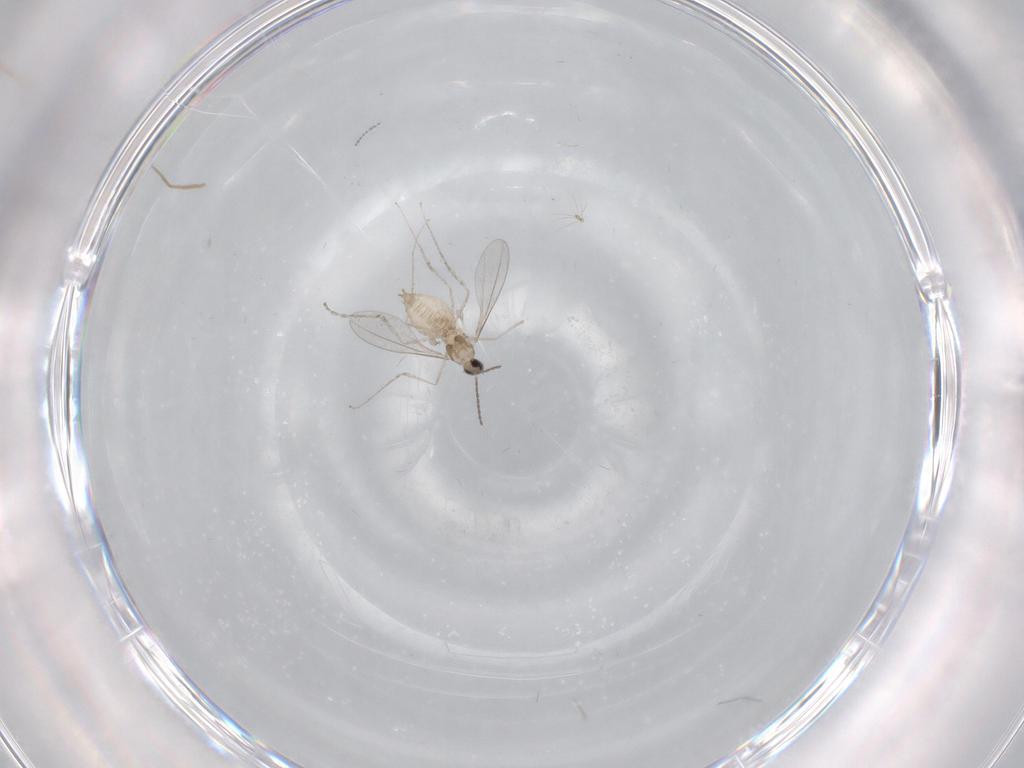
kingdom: Animalia
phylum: Arthropoda
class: Insecta
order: Diptera
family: Cecidomyiidae
